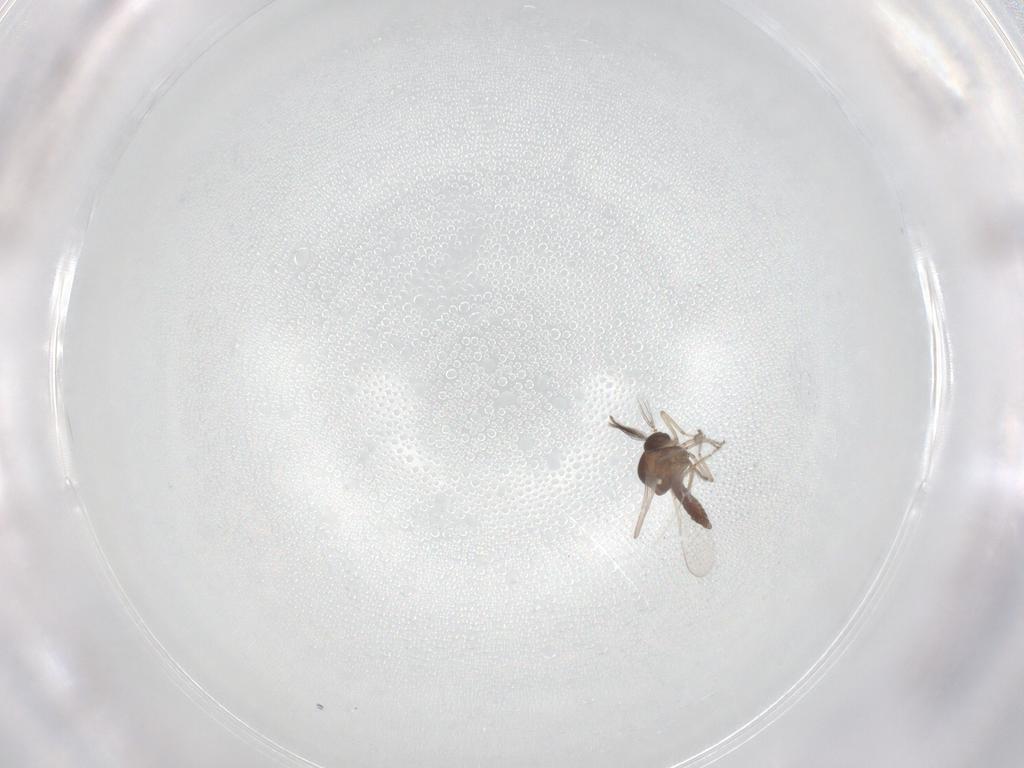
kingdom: Animalia
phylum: Arthropoda
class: Insecta
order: Diptera
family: Ceratopogonidae
